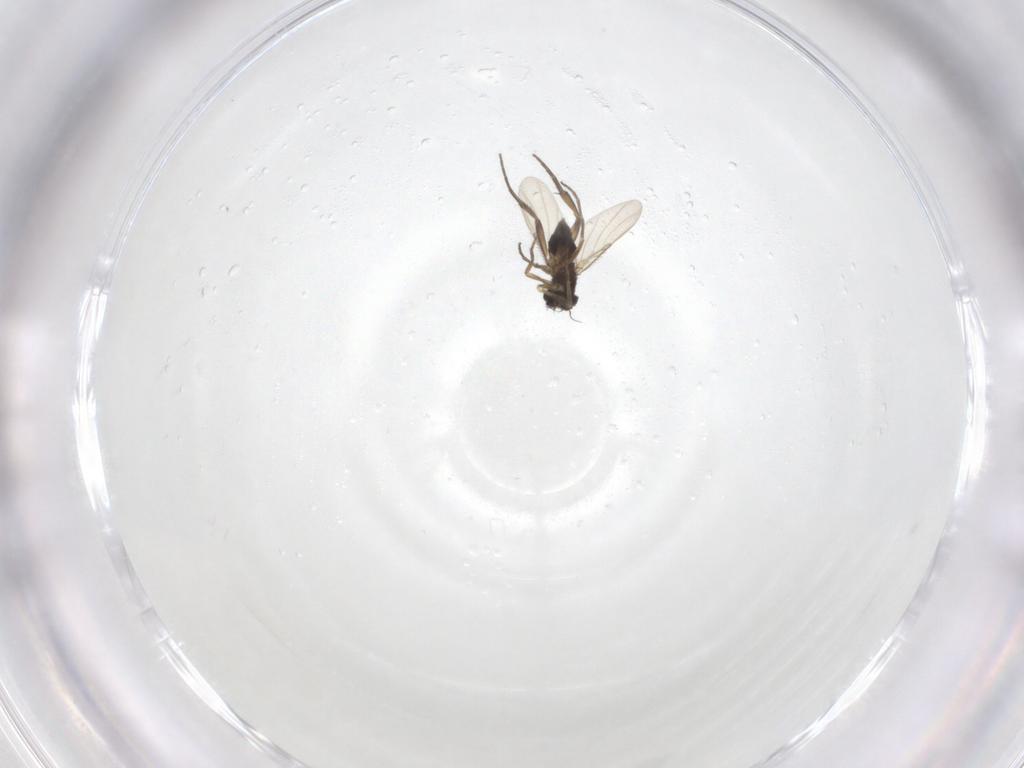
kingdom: Animalia
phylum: Arthropoda
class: Insecta
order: Diptera
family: Phoridae
